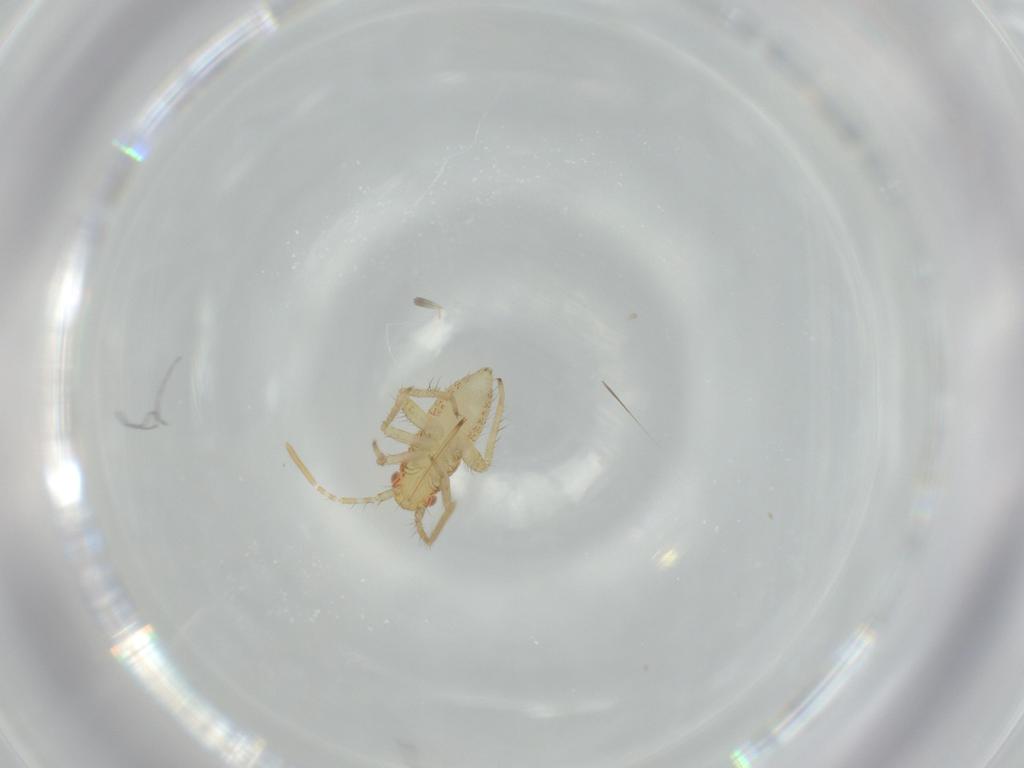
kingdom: Animalia
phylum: Arthropoda
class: Insecta
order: Hemiptera
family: Miridae
